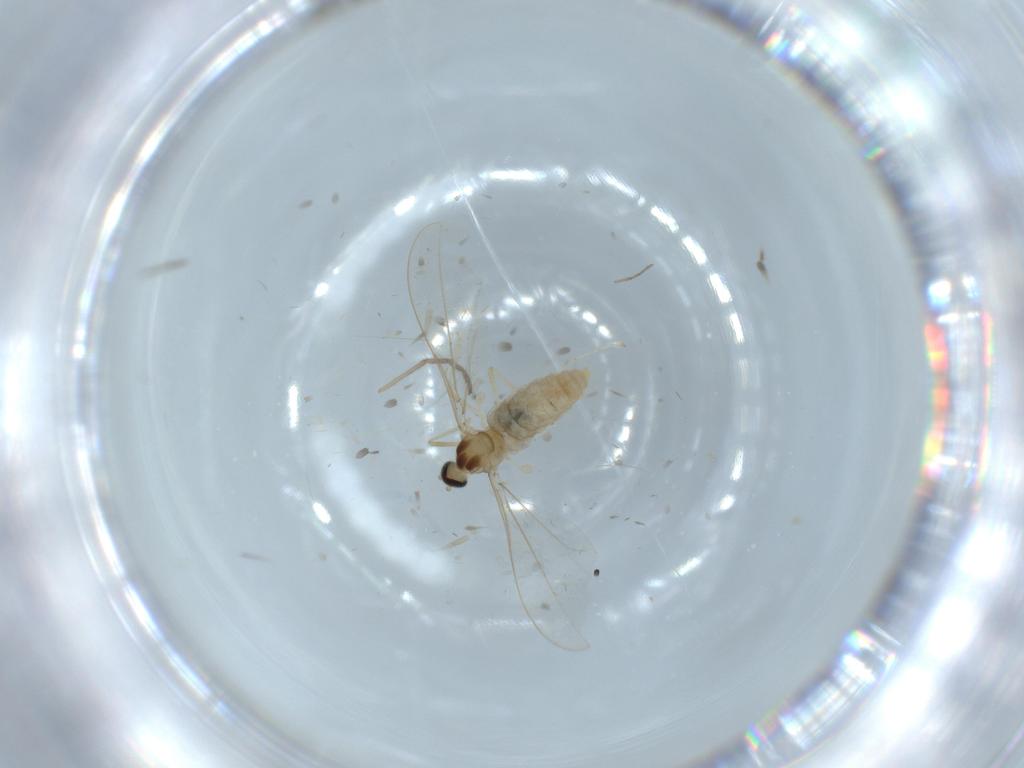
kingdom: Animalia
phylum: Arthropoda
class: Insecta
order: Diptera
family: Cecidomyiidae
